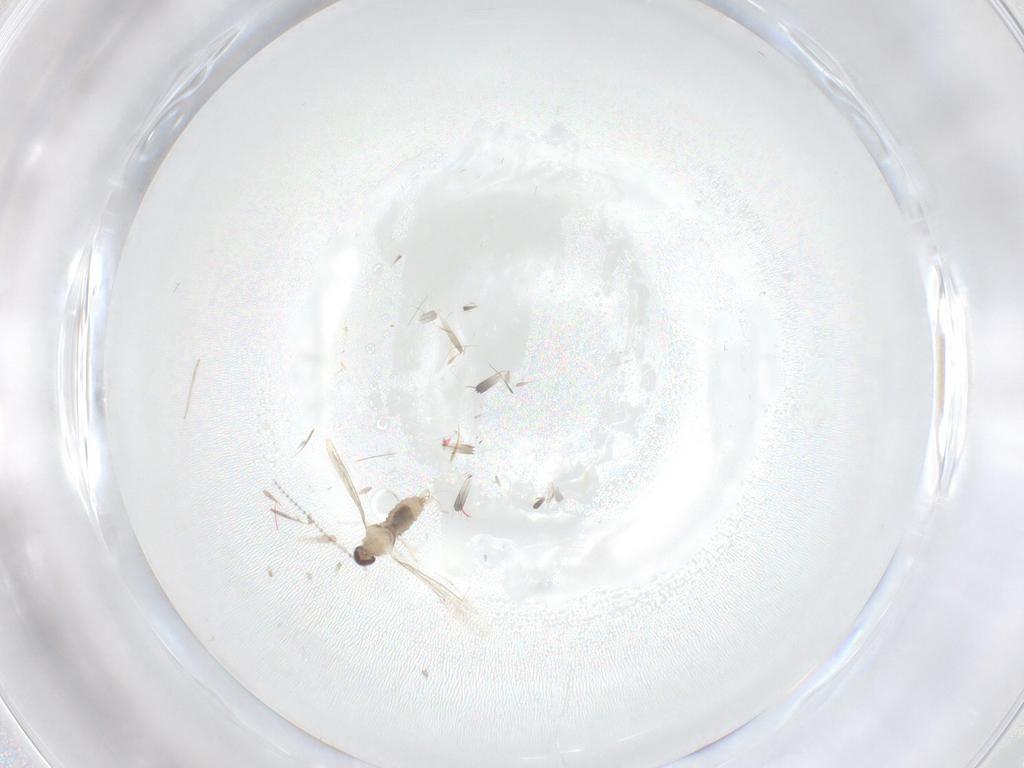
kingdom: Animalia
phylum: Arthropoda
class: Insecta
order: Diptera
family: Cecidomyiidae
